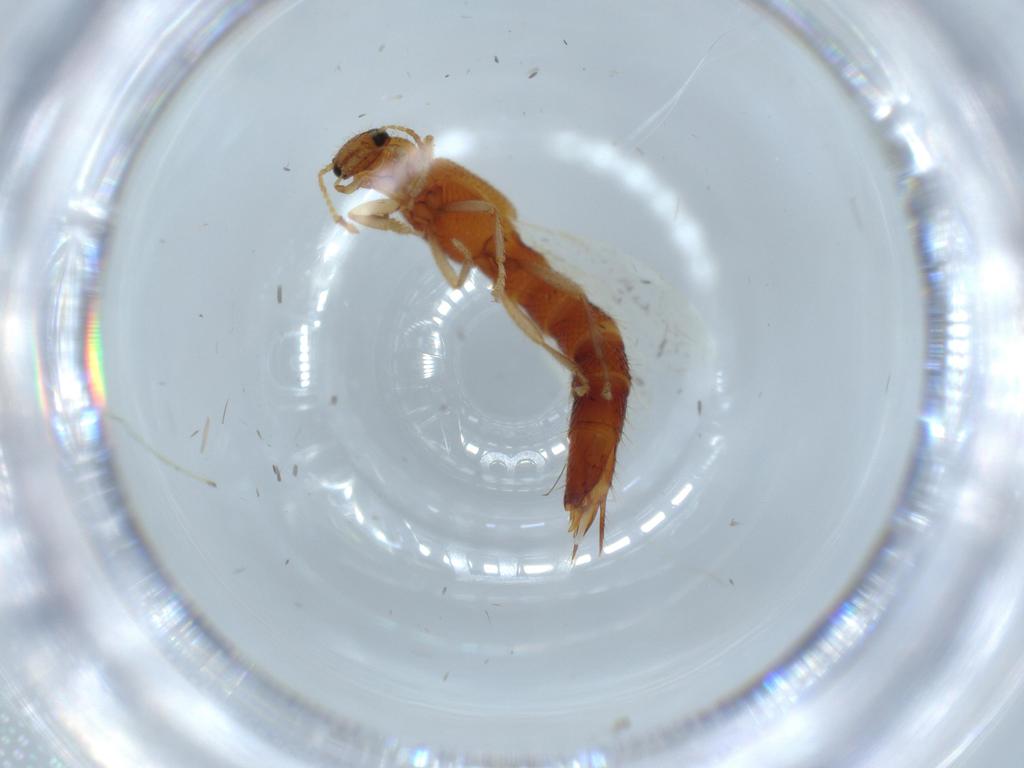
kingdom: Animalia
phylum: Arthropoda
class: Insecta
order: Coleoptera
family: Staphylinidae
